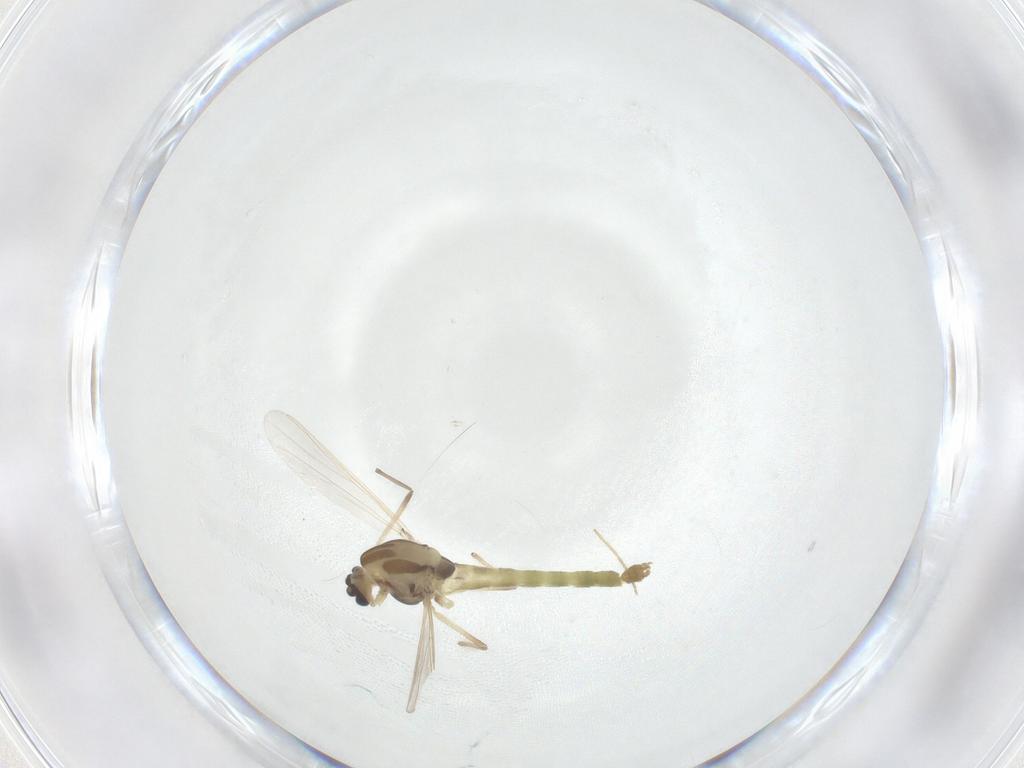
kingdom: Animalia
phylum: Arthropoda
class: Insecta
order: Diptera
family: Chironomidae
